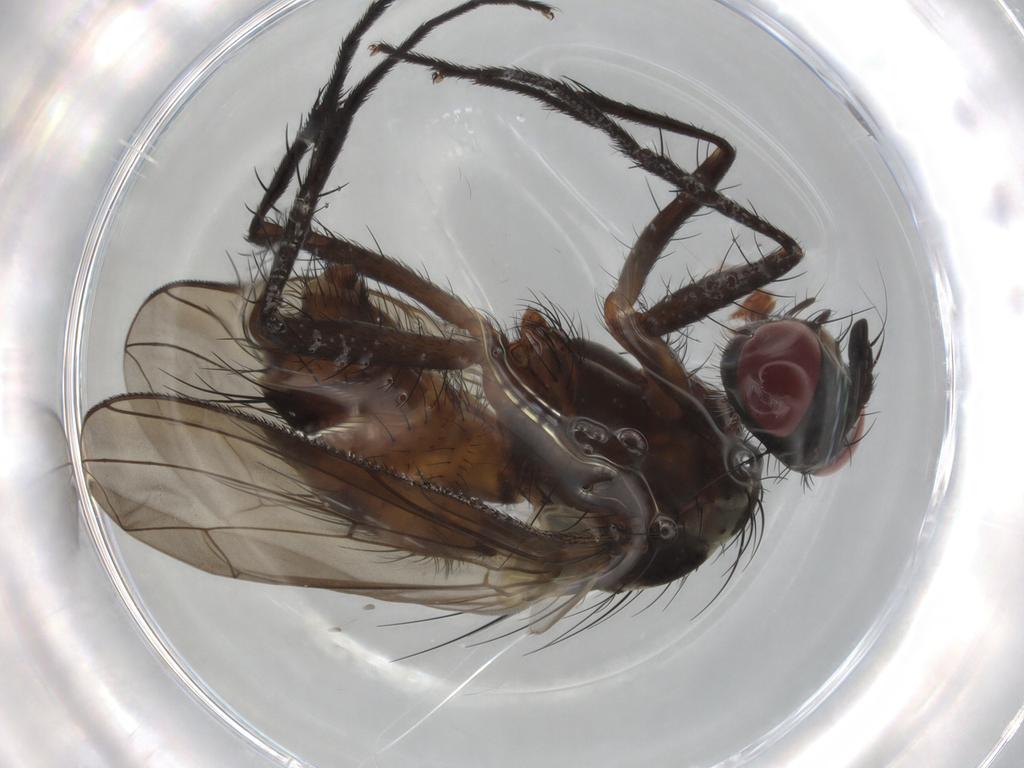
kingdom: Animalia
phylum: Arthropoda
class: Insecta
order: Diptera
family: Muscidae
